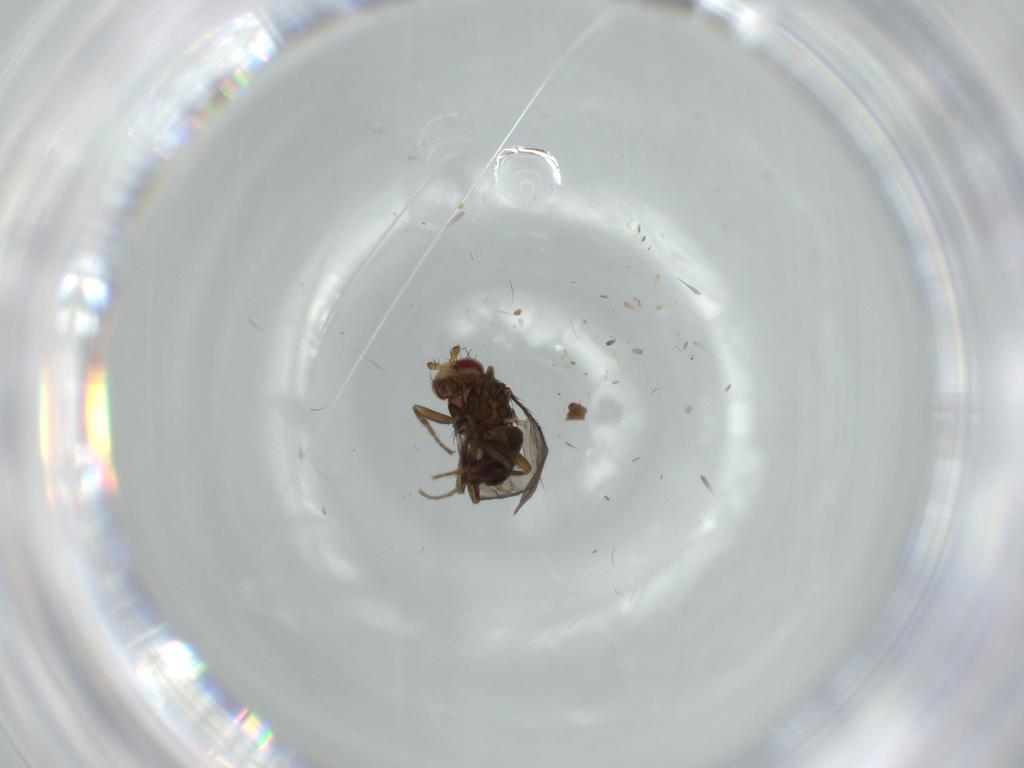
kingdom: Animalia
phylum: Arthropoda
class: Insecta
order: Diptera
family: Sphaeroceridae
